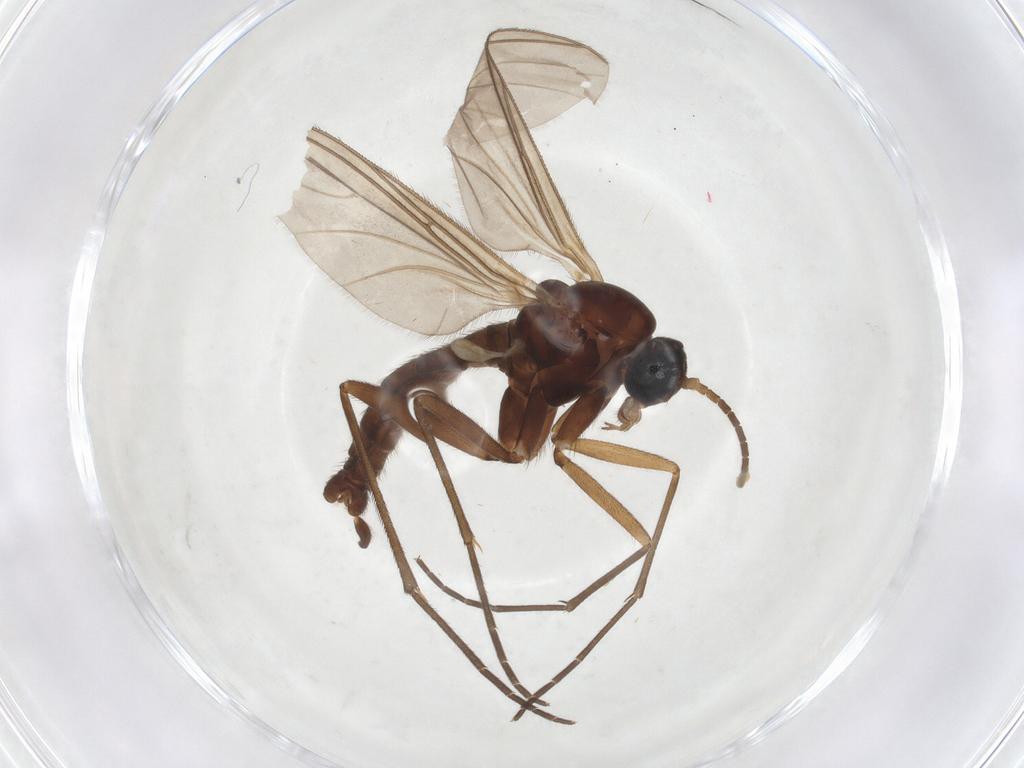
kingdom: Animalia
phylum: Arthropoda
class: Insecta
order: Diptera
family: Sciaridae
